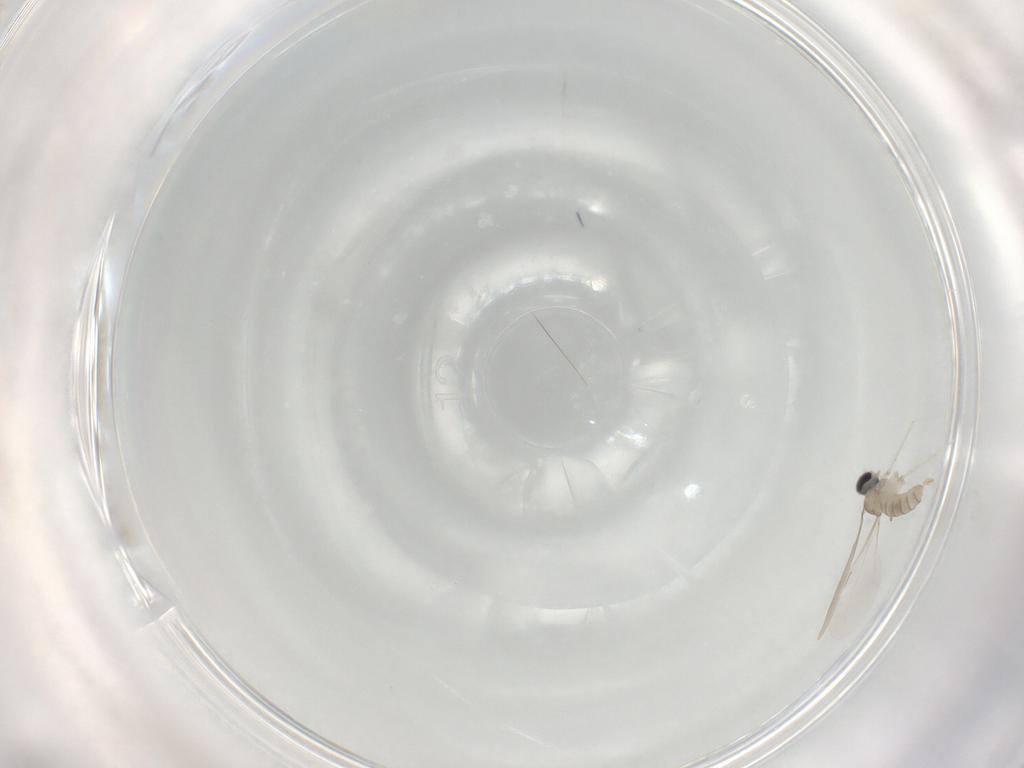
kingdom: Animalia
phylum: Arthropoda
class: Insecta
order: Diptera
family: Cecidomyiidae
